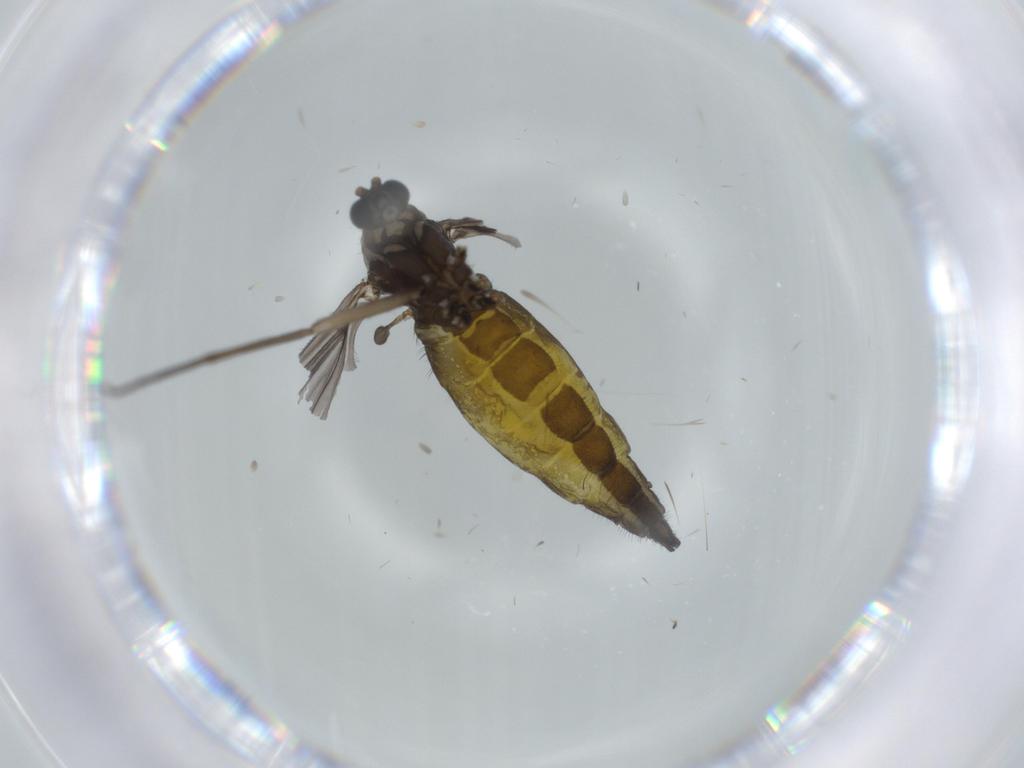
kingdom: Animalia
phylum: Arthropoda
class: Insecta
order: Diptera
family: Sciaridae
